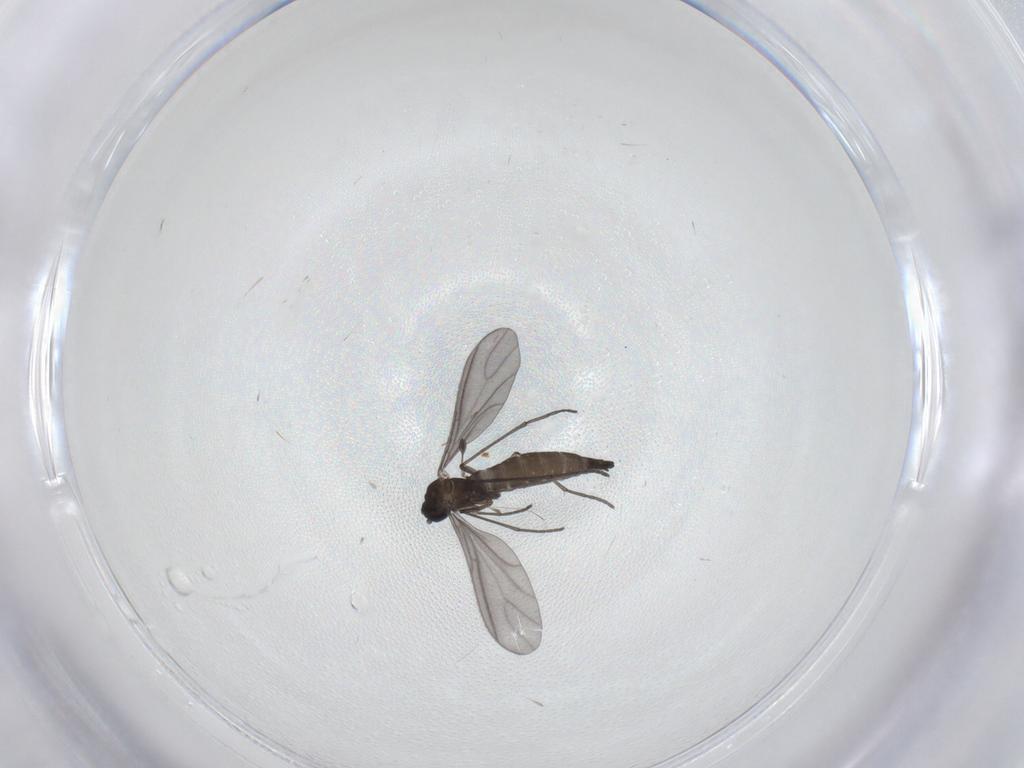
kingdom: Animalia
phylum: Arthropoda
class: Insecta
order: Diptera
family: Sciaridae
